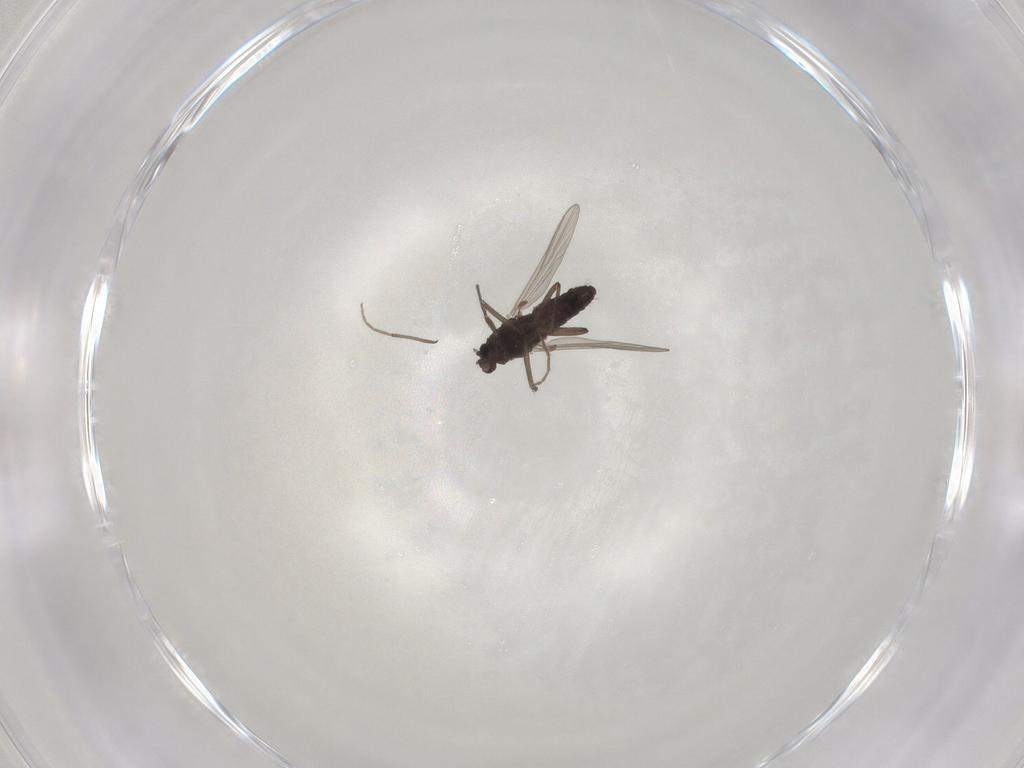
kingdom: Animalia
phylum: Arthropoda
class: Insecta
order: Diptera
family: Chironomidae
